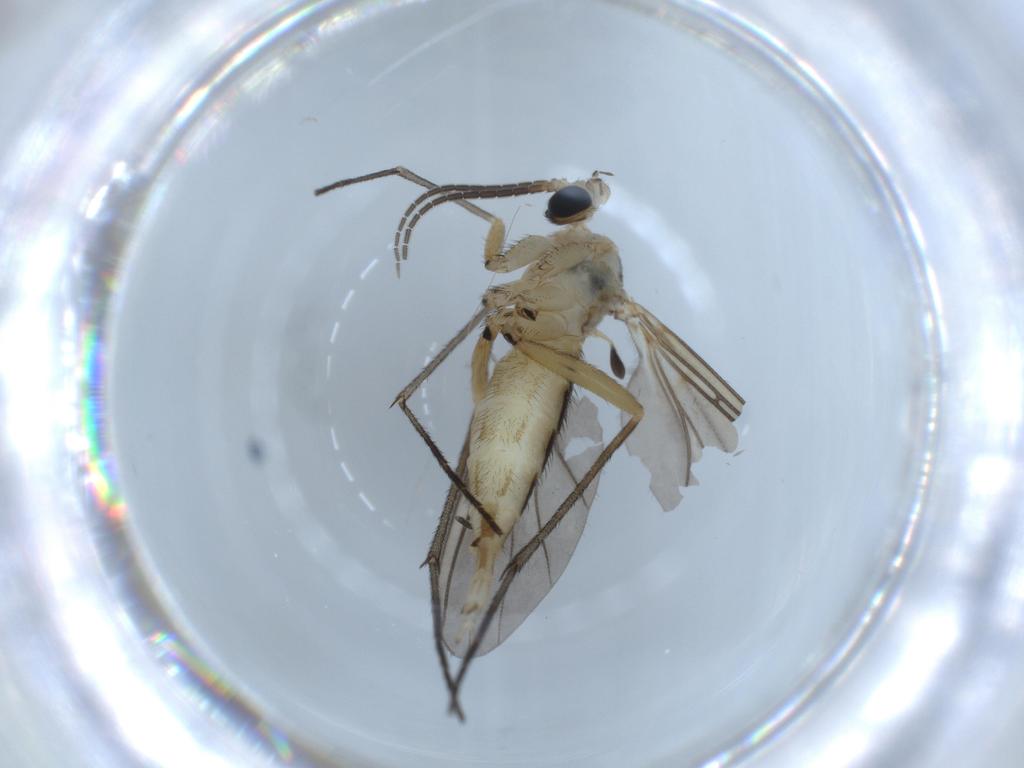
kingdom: Animalia
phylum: Arthropoda
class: Insecta
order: Diptera
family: Sciaridae
